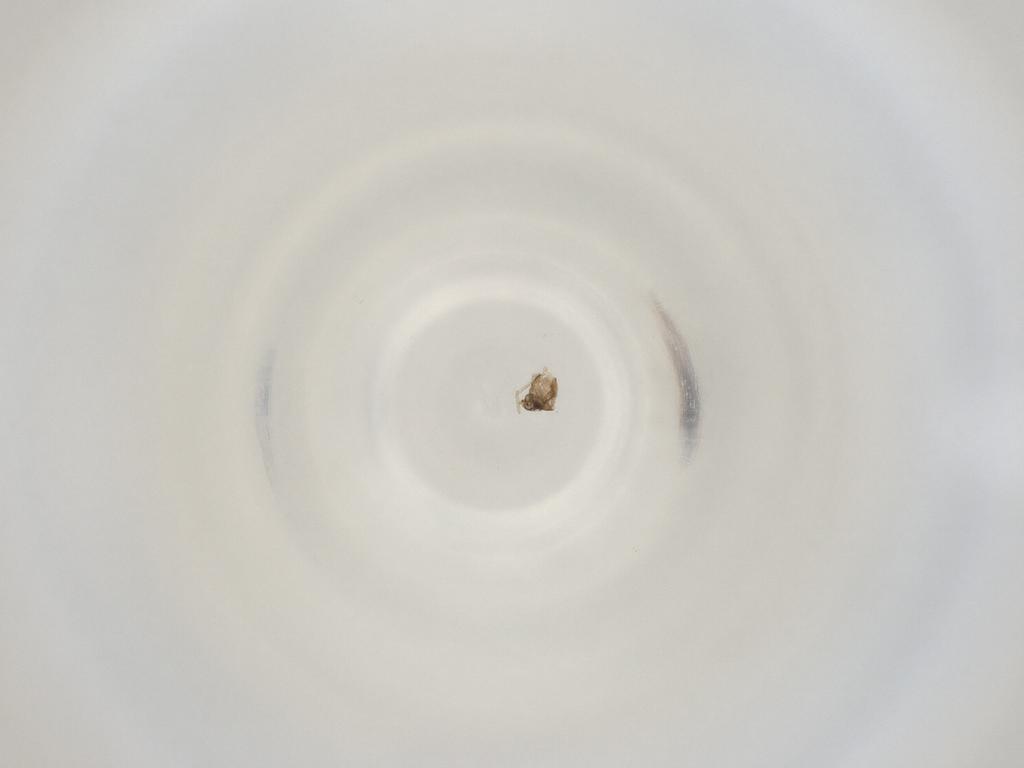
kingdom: Animalia
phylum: Arthropoda
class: Insecta
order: Diptera
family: Cecidomyiidae
